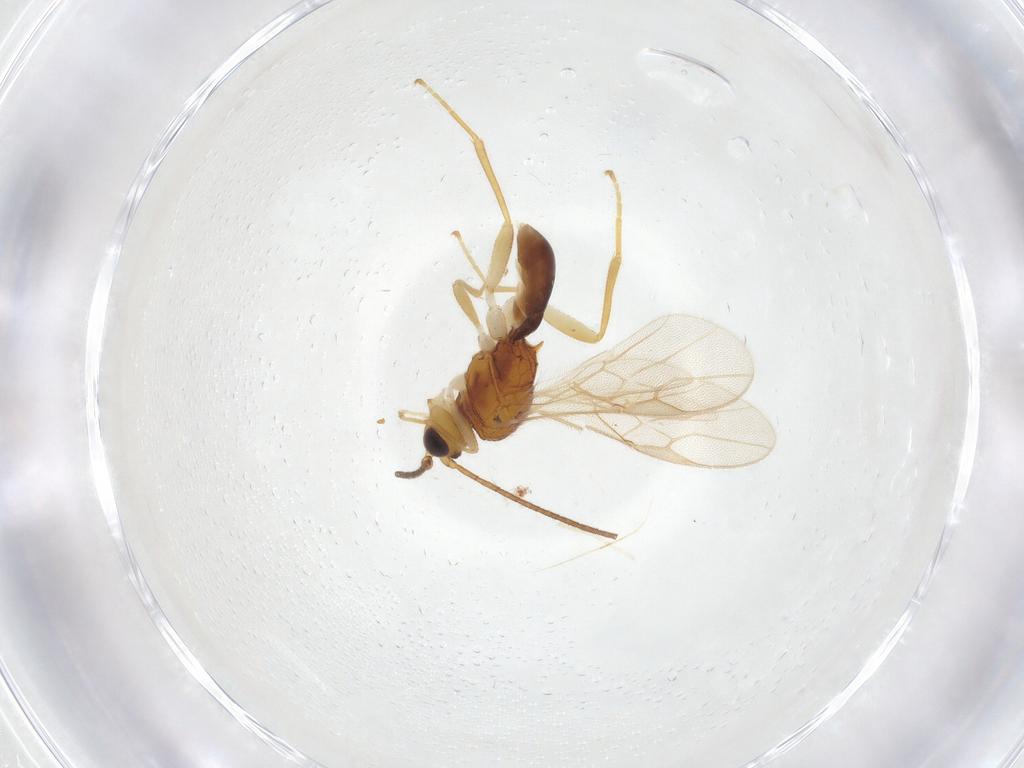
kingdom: Animalia
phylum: Arthropoda
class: Insecta
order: Hymenoptera
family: Braconidae
